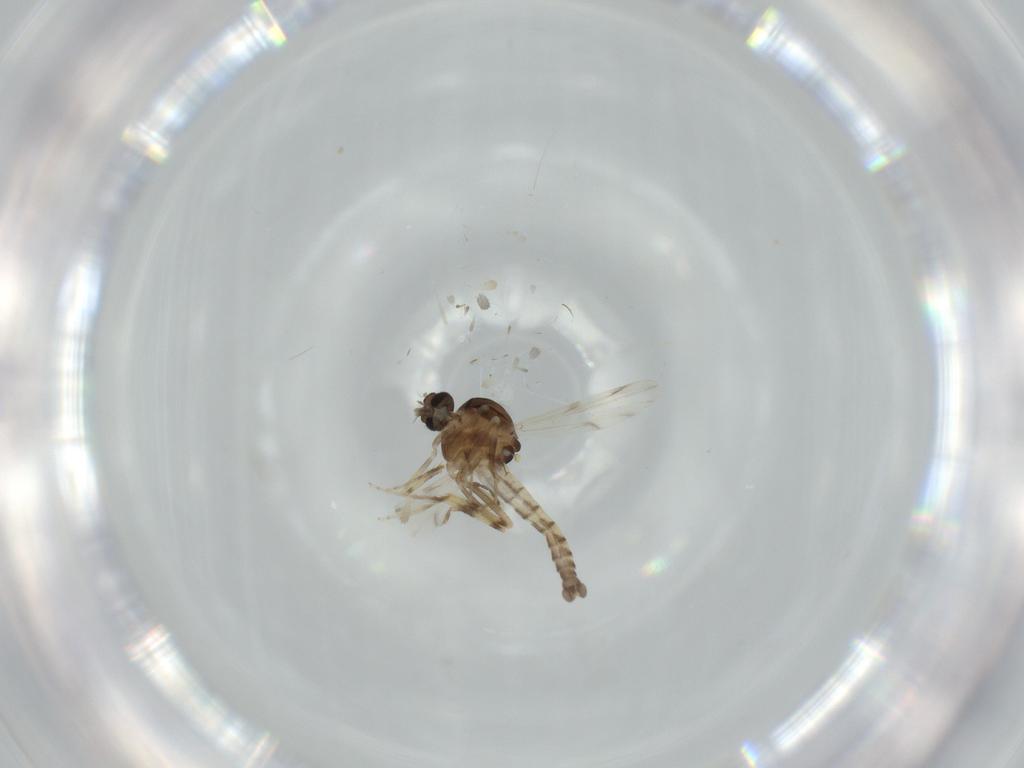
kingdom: Animalia
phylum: Arthropoda
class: Insecta
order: Diptera
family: Ceratopogonidae
